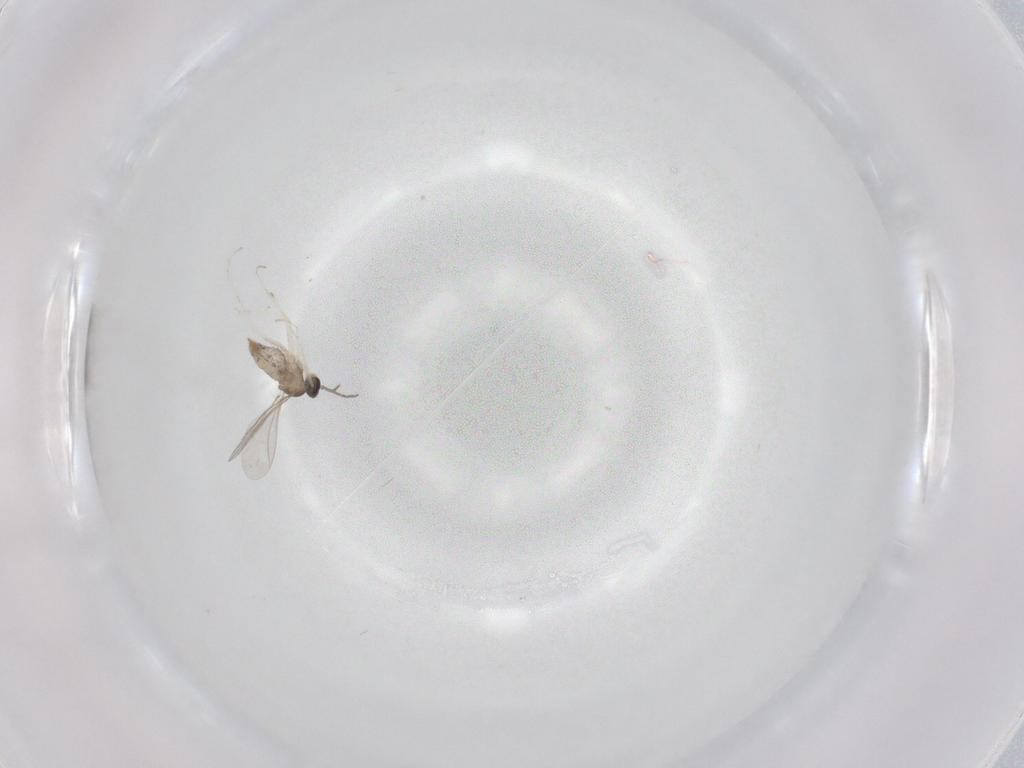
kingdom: Animalia
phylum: Arthropoda
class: Insecta
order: Diptera
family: Cecidomyiidae
